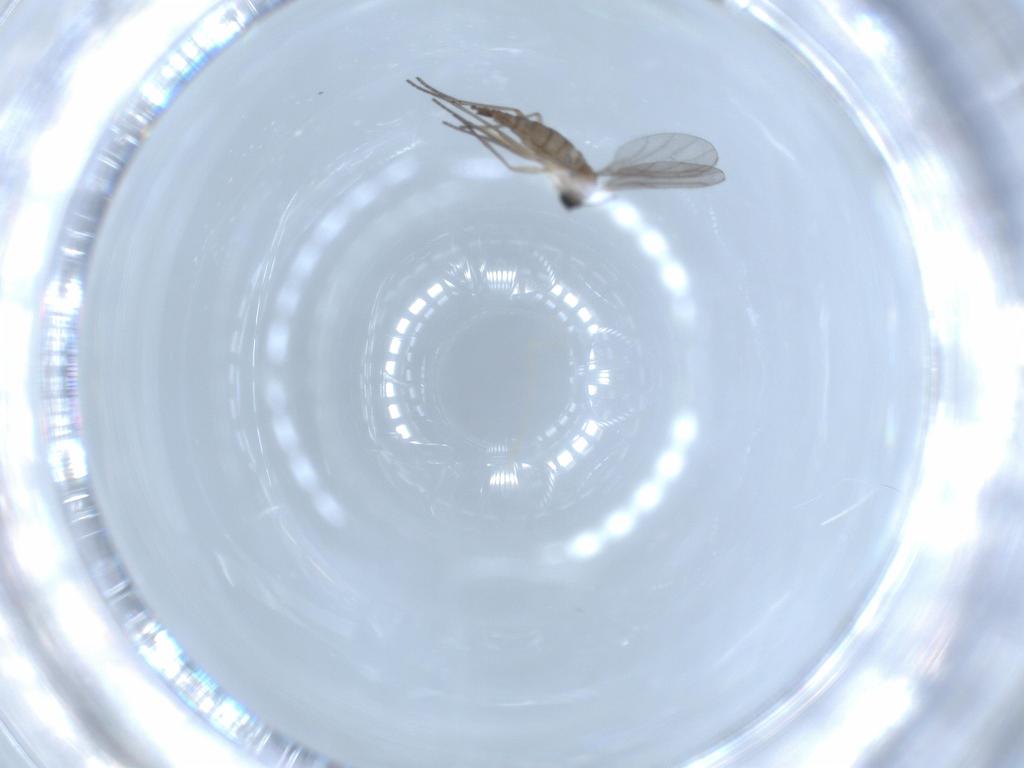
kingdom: Animalia
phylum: Arthropoda
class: Insecta
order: Diptera
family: Sciaridae
